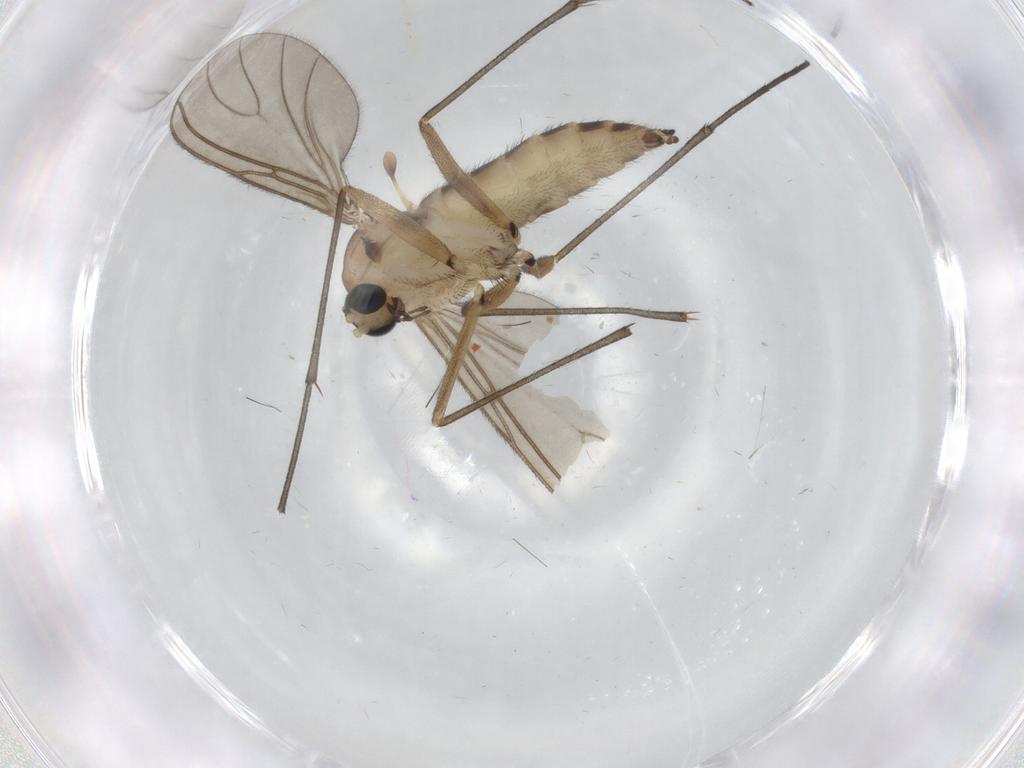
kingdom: Animalia
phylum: Arthropoda
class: Insecta
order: Diptera
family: Sciaridae
